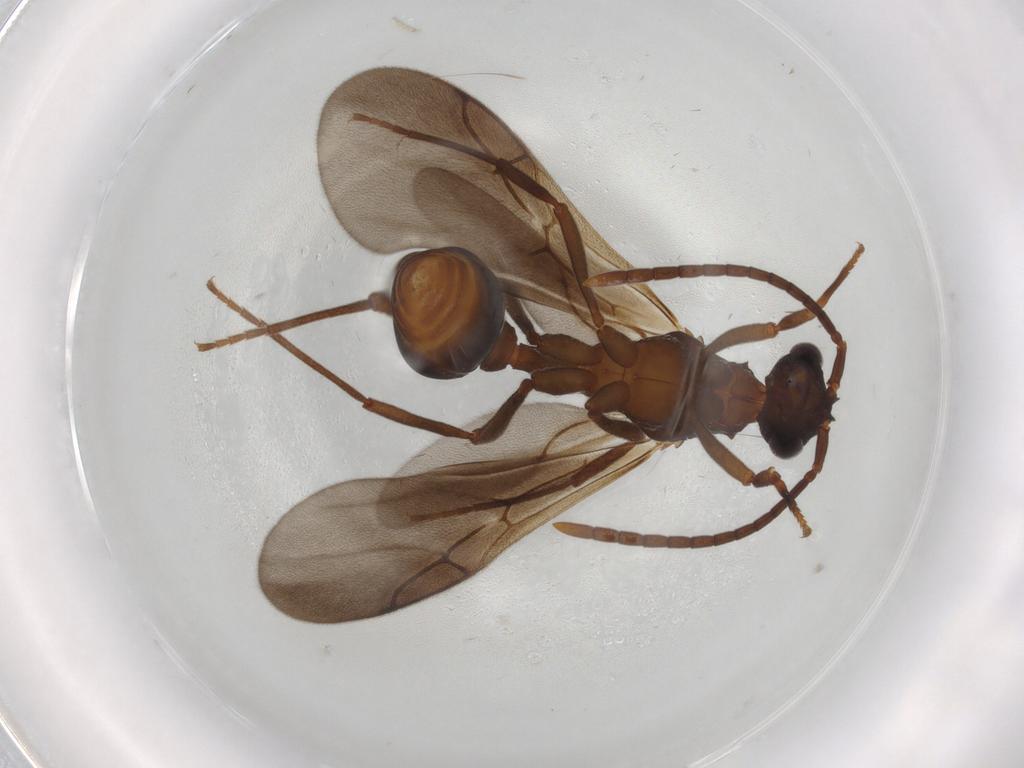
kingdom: Animalia
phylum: Arthropoda
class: Insecta
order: Hymenoptera
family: Formicidae
